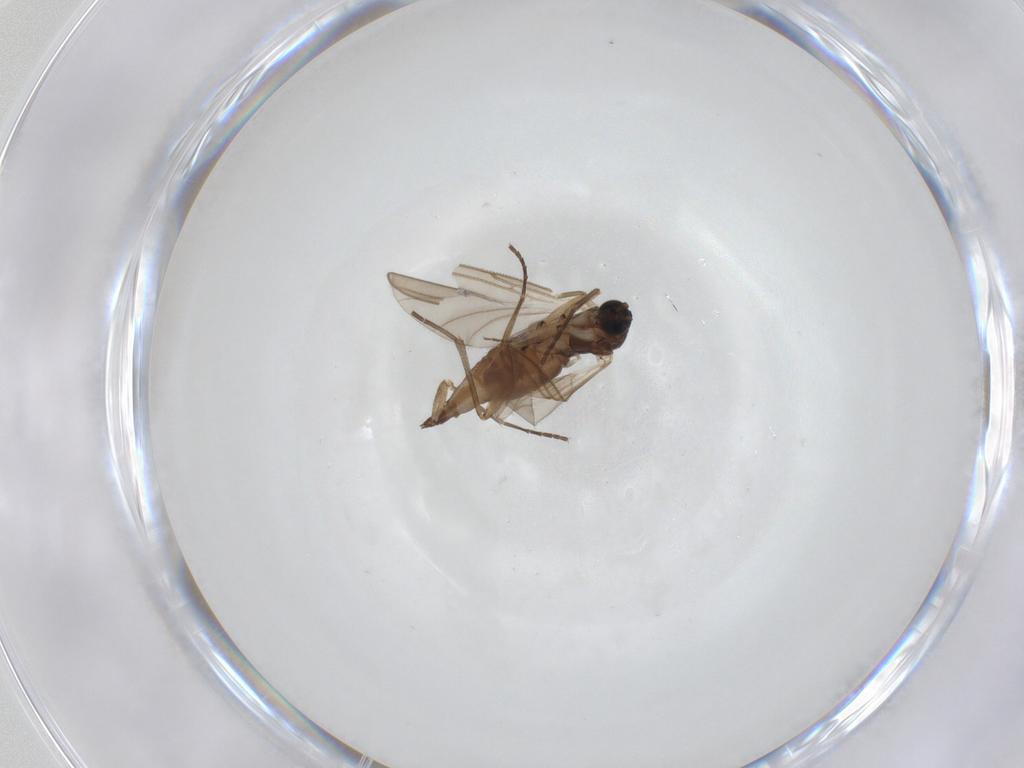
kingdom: Animalia
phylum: Arthropoda
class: Insecta
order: Diptera
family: Sciaridae
